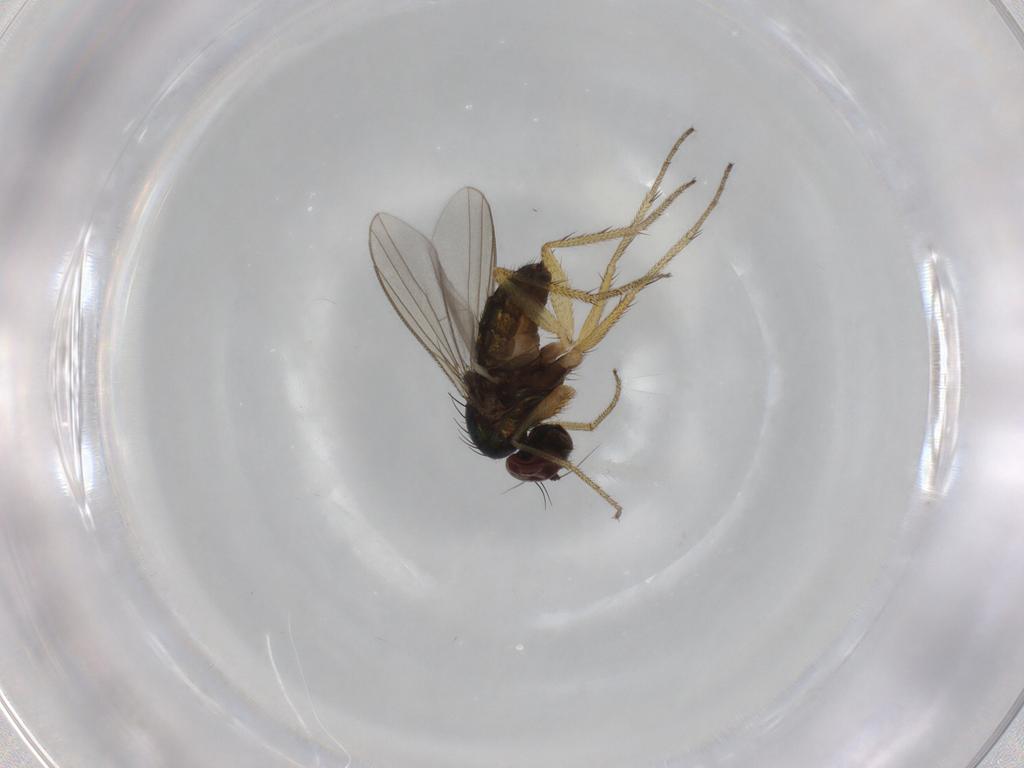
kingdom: Animalia
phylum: Arthropoda
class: Insecta
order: Diptera
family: Dolichopodidae
